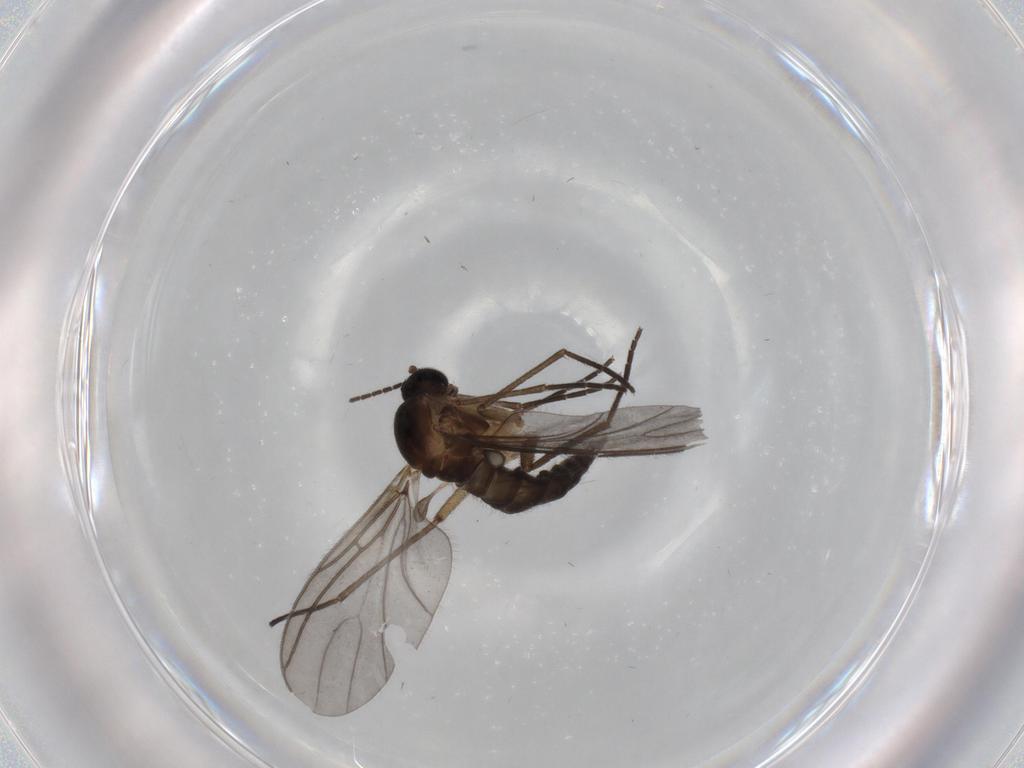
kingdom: Animalia
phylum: Arthropoda
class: Insecta
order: Diptera
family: Sciaridae
